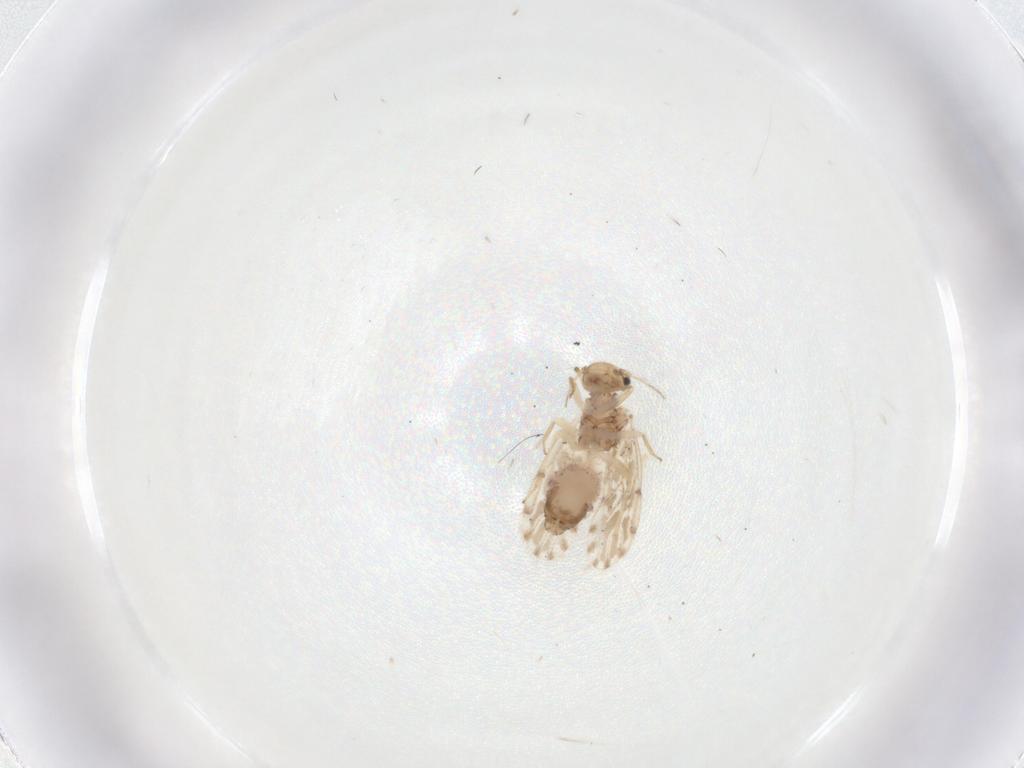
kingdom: Animalia
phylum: Arthropoda
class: Insecta
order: Psocodea
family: Ectopsocidae
